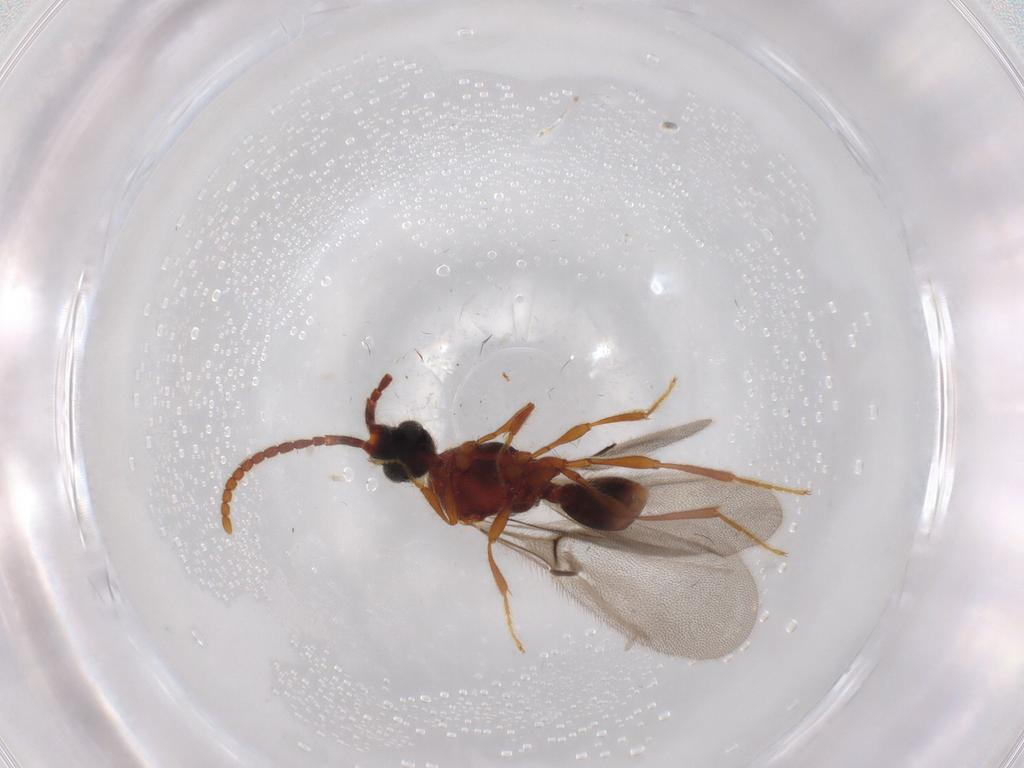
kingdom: Animalia
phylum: Arthropoda
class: Insecta
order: Hymenoptera
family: Diapriidae
